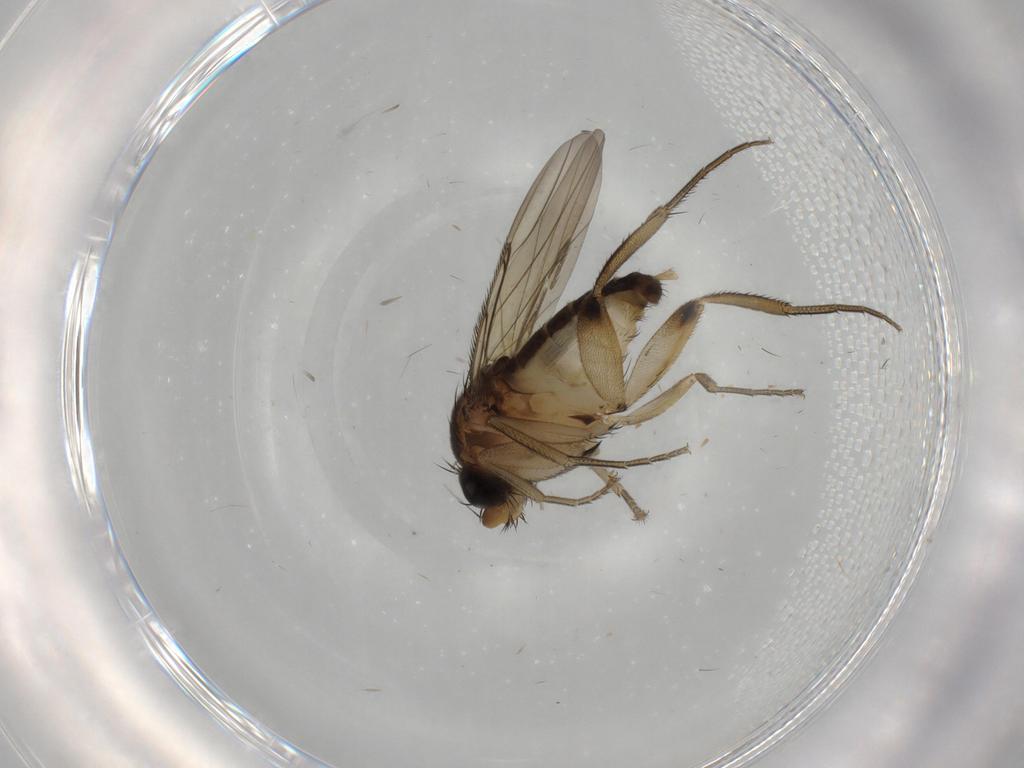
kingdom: Animalia
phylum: Arthropoda
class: Insecta
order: Diptera
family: Phoridae
